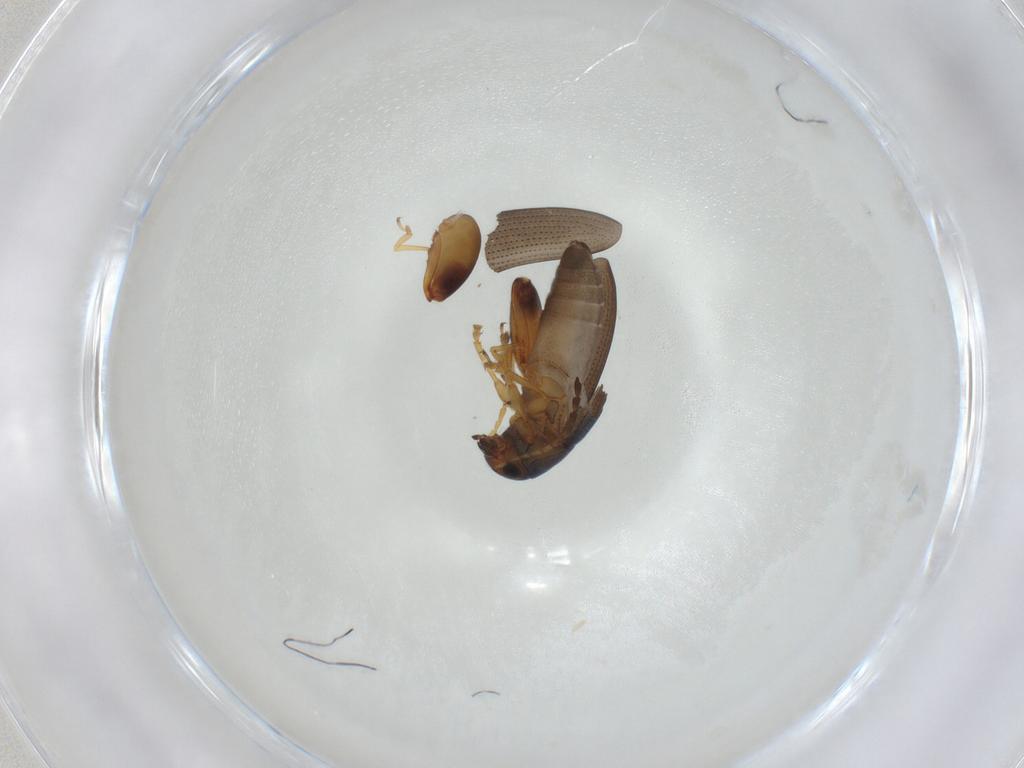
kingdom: Animalia
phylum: Arthropoda
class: Insecta
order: Coleoptera
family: Chrysomelidae
